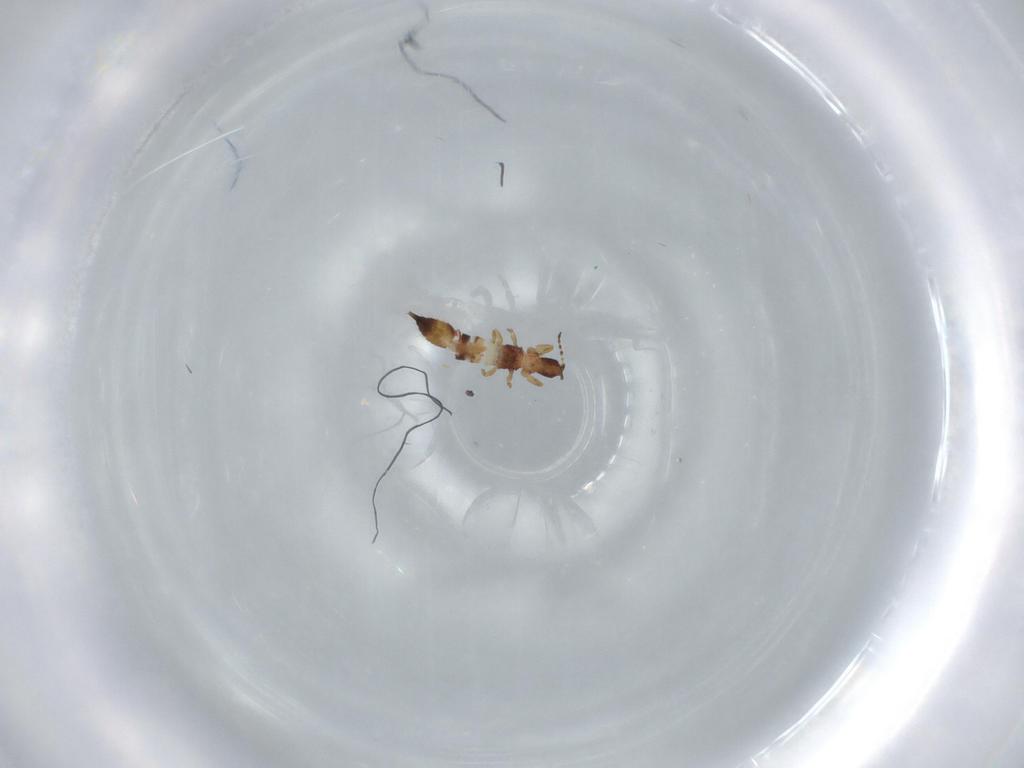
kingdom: Animalia
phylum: Arthropoda
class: Insecta
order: Thysanoptera
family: Phlaeothripidae
